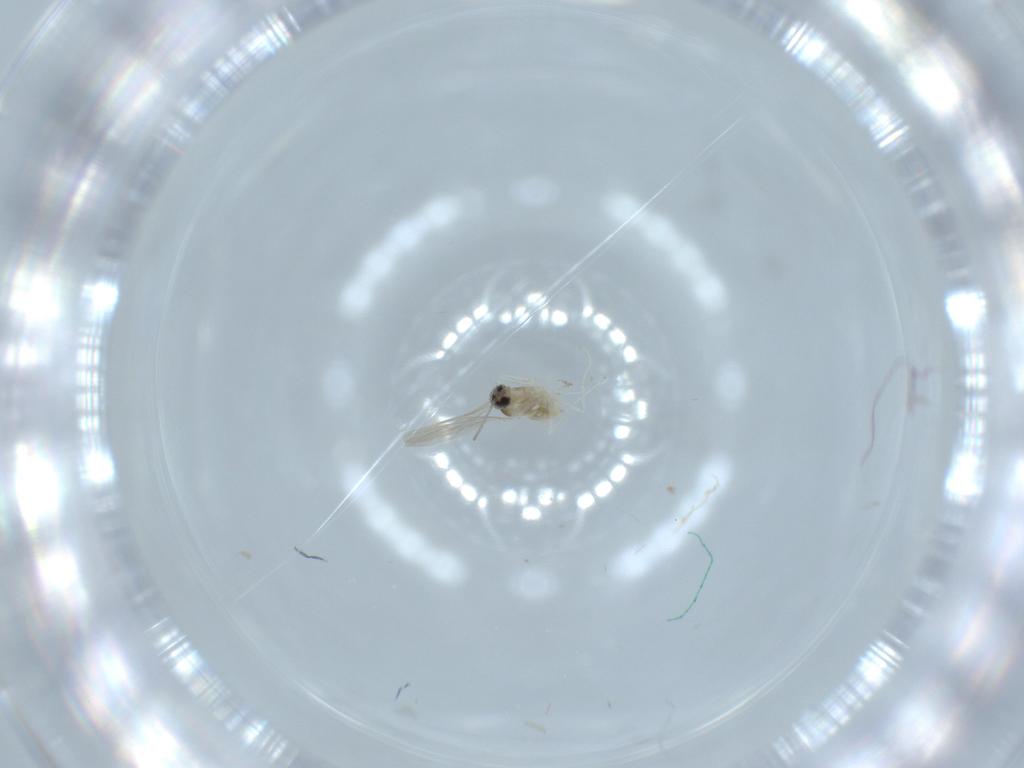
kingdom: Animalia
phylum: Arthropoda
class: Insecta
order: Diptera
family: Cecidomyiidae
